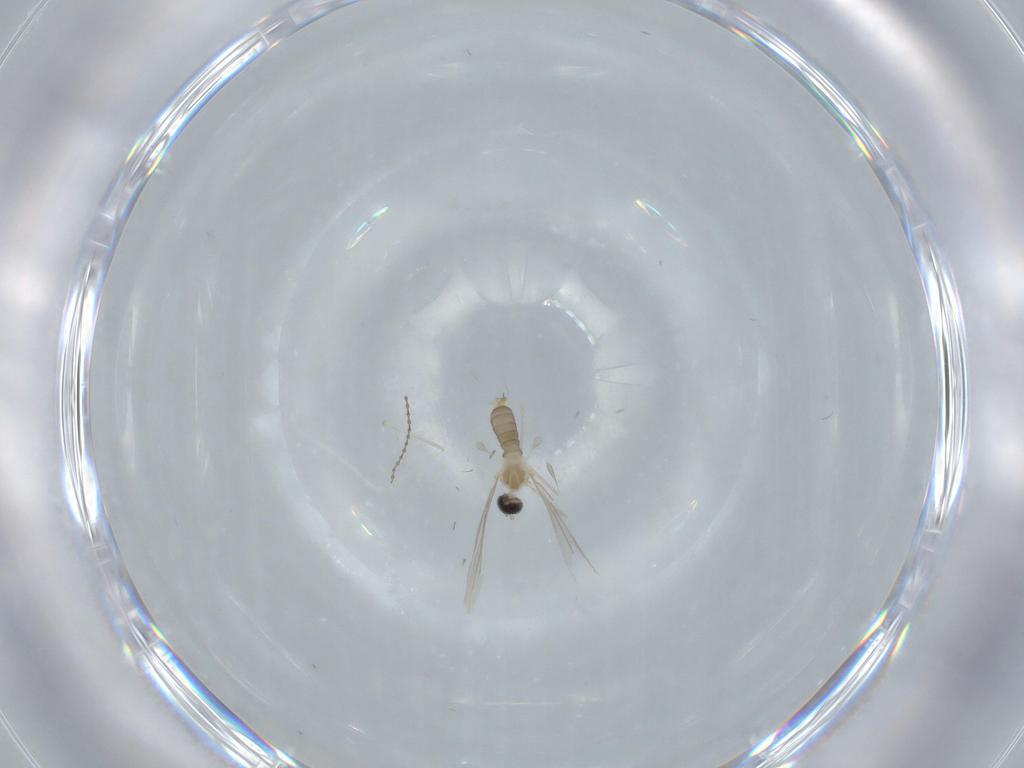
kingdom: Animalia
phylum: Arthropoda
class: Insecta
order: Diptera
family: Cecidomyiidae
